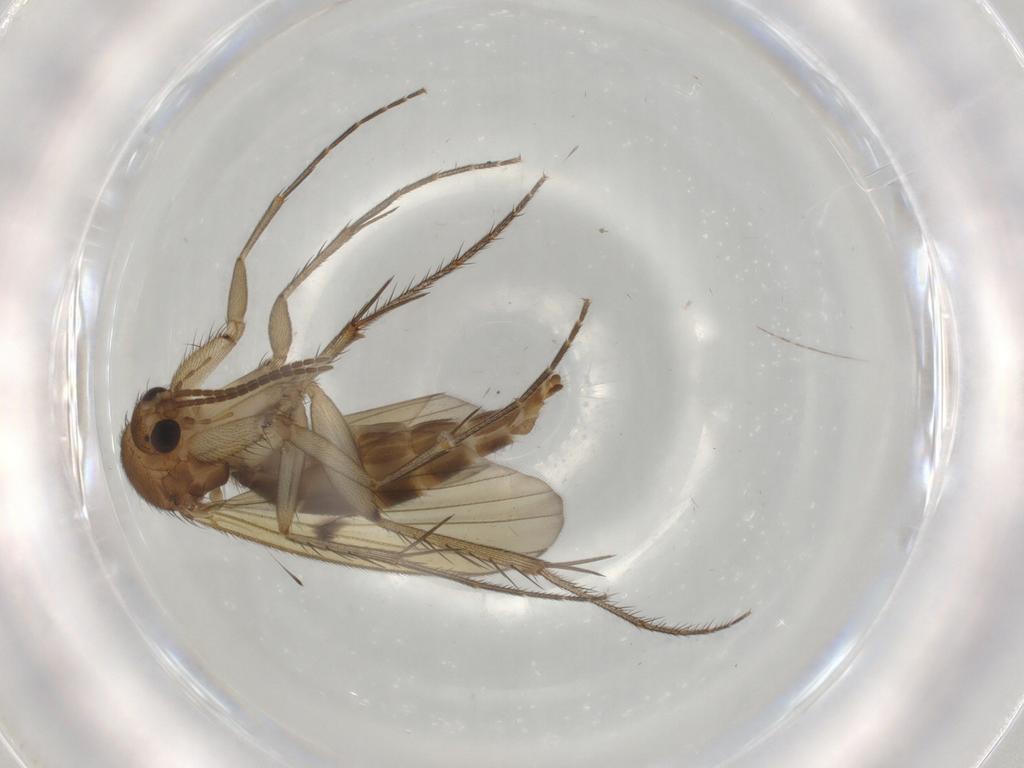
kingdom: Animalia
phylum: Arthropoda
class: Insecta
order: Diptera
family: Mycetophilidae
